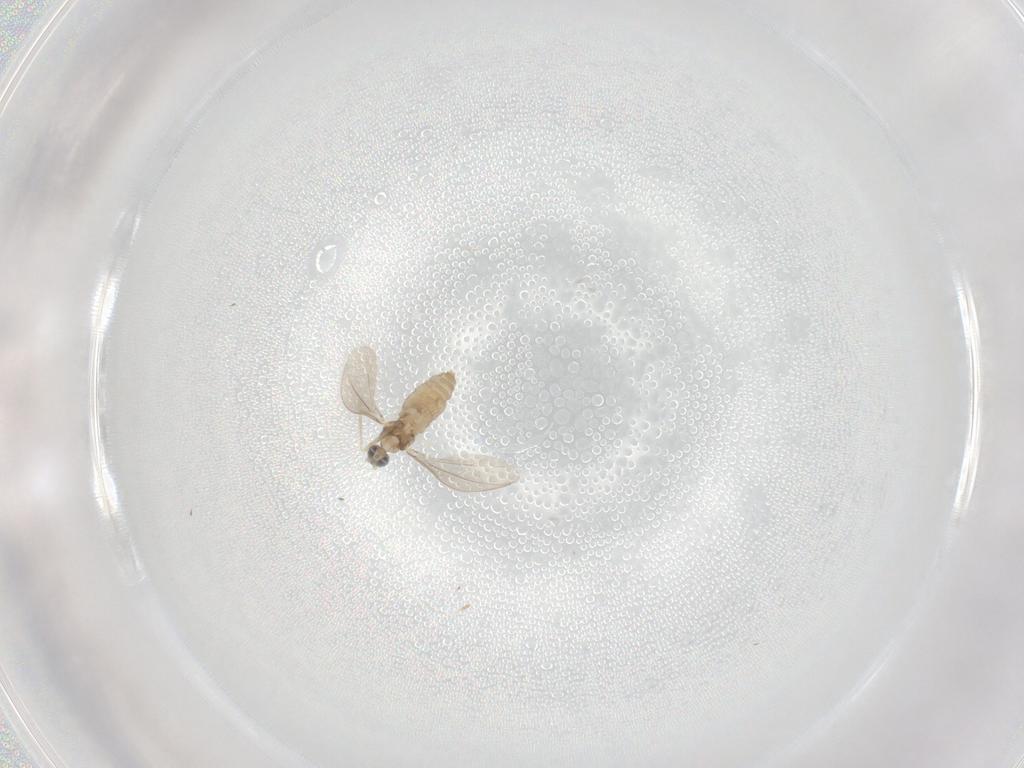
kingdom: Animalia
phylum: Arthropoda
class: Insecta
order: Diptera
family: Cecidomyiidae
